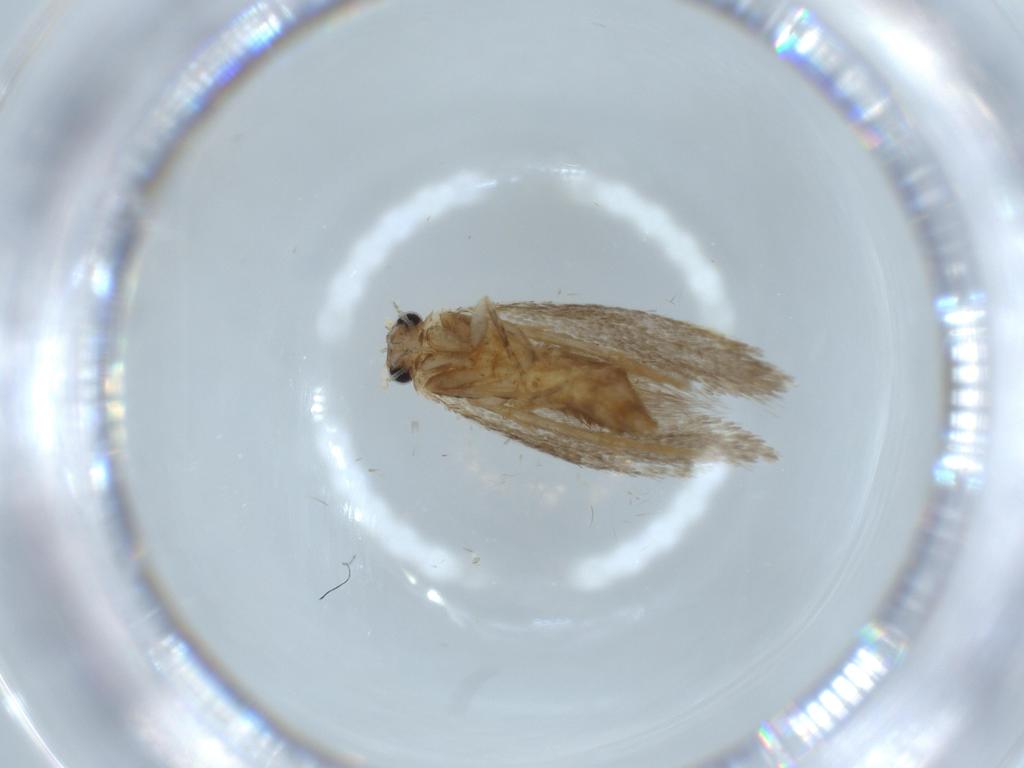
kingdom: Animalia
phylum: Arthropoda
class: Insecta
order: Lepidoptera
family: Tineidae
